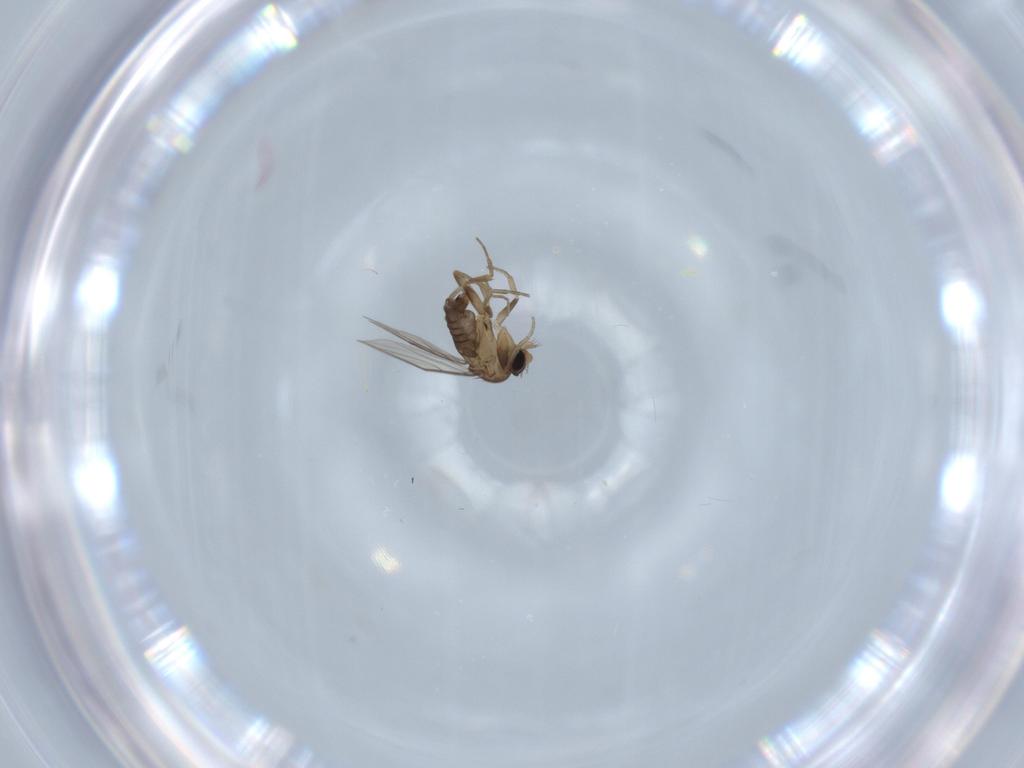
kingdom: Animalia
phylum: Arthropoda
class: Insecta
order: Diptera
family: Phoridae
